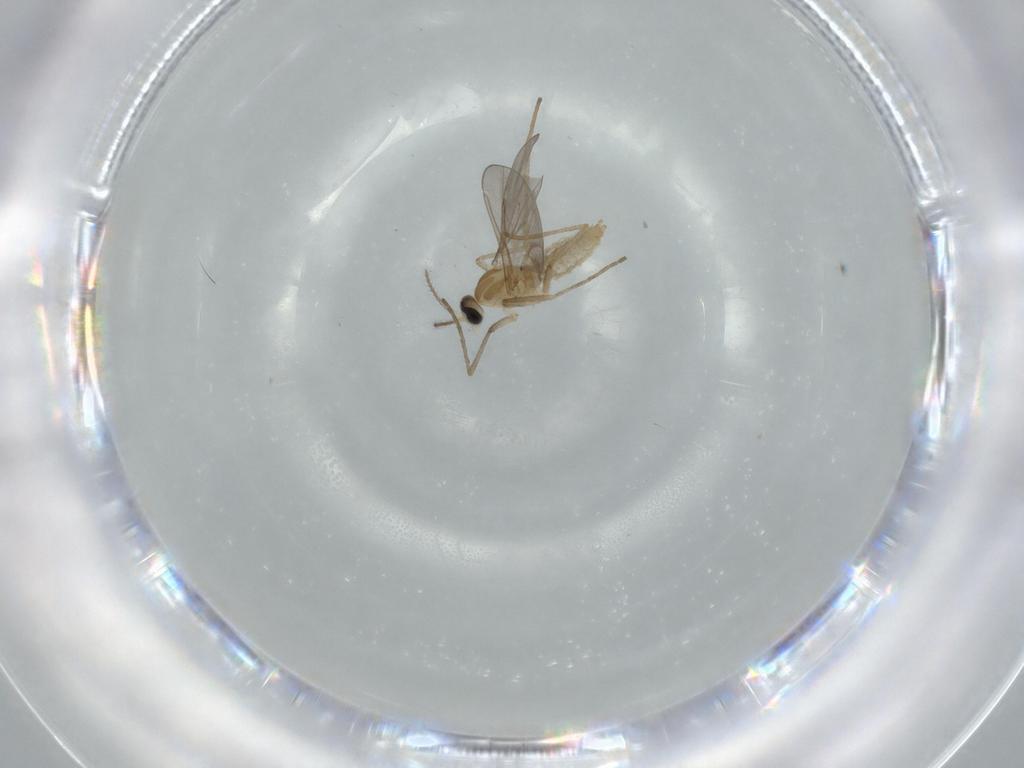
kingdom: Animalia
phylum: Arthropoda
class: Insecta
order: Diptera
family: Cecidomyiidae
